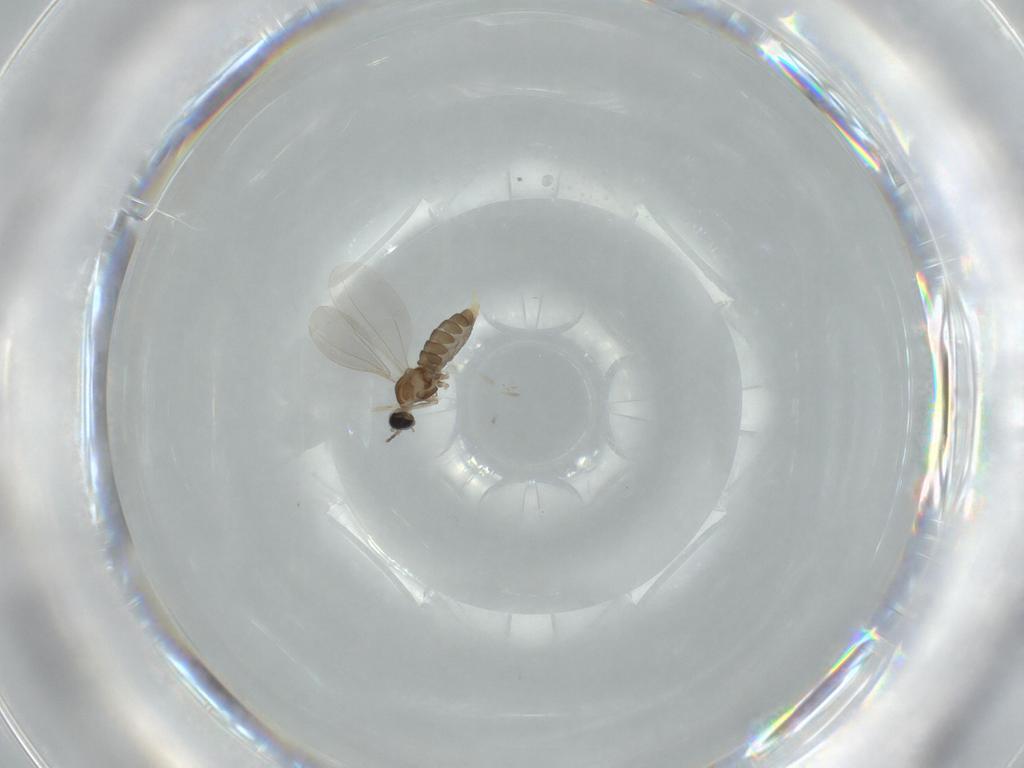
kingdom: Animalia
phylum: Arthropoda
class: Insecta
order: Diptera
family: Cecidomyiidae
